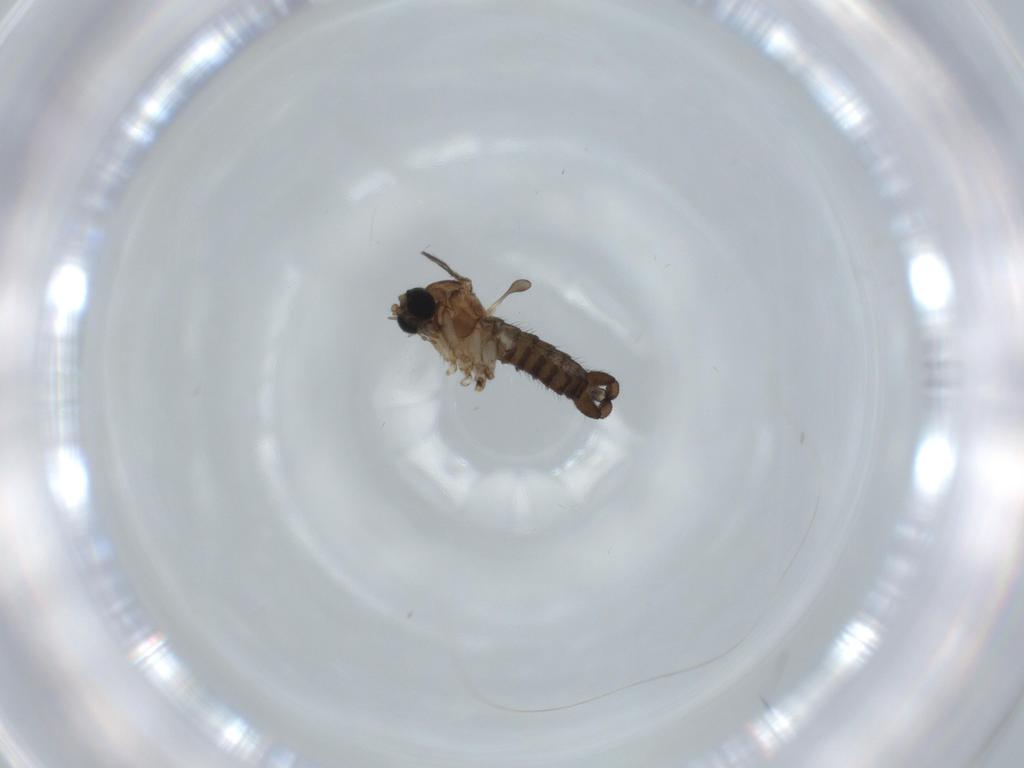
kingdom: Animalia
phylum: Arthropoda
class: Insecta
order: Diptera
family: Sciaridae
